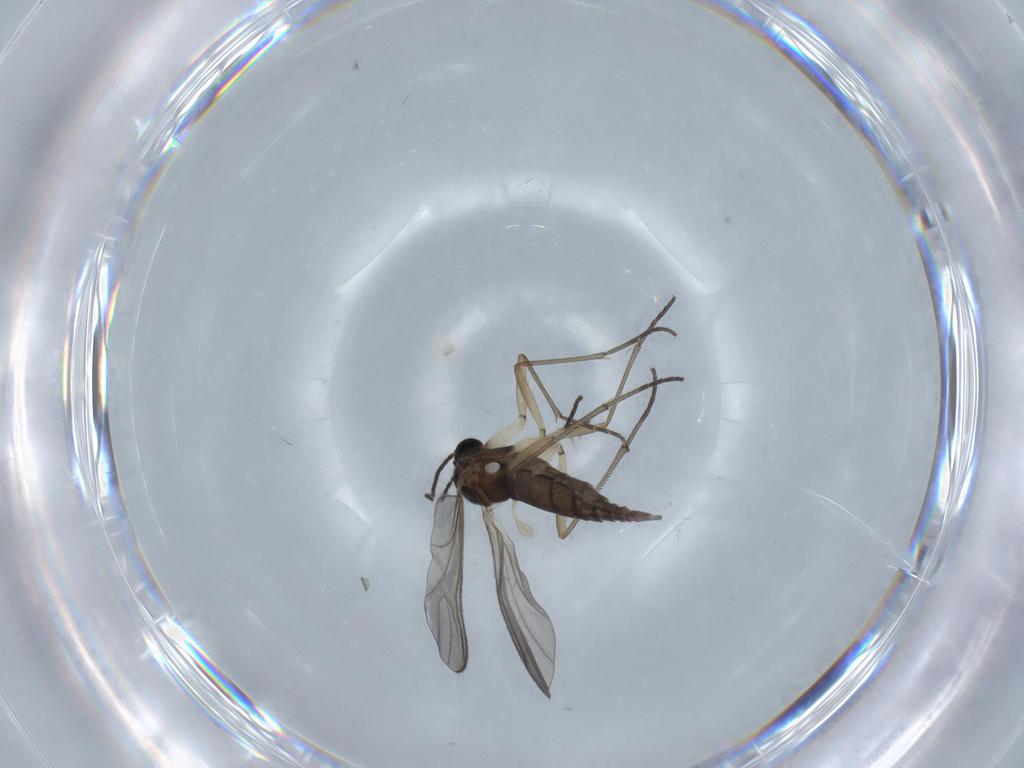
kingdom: Animalia
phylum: Arthropoda
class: Insecta
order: Diptera
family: Sciaridae
